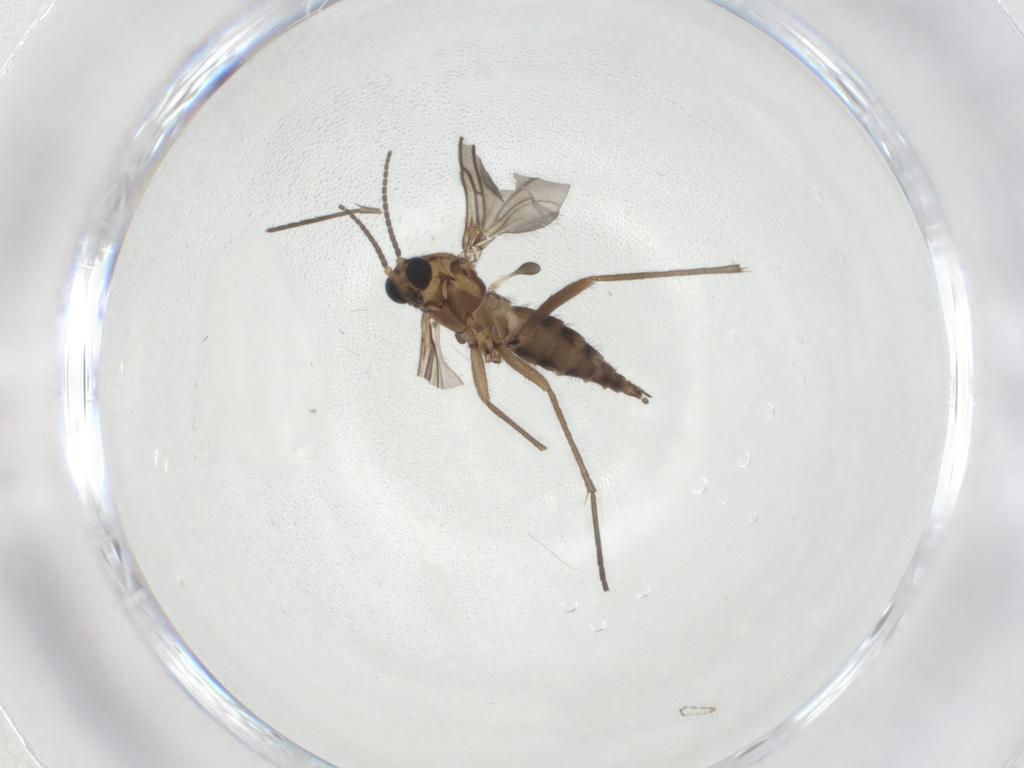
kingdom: Animalia
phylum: Arthropoda
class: Insecta
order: Diptera
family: Sciaridae
